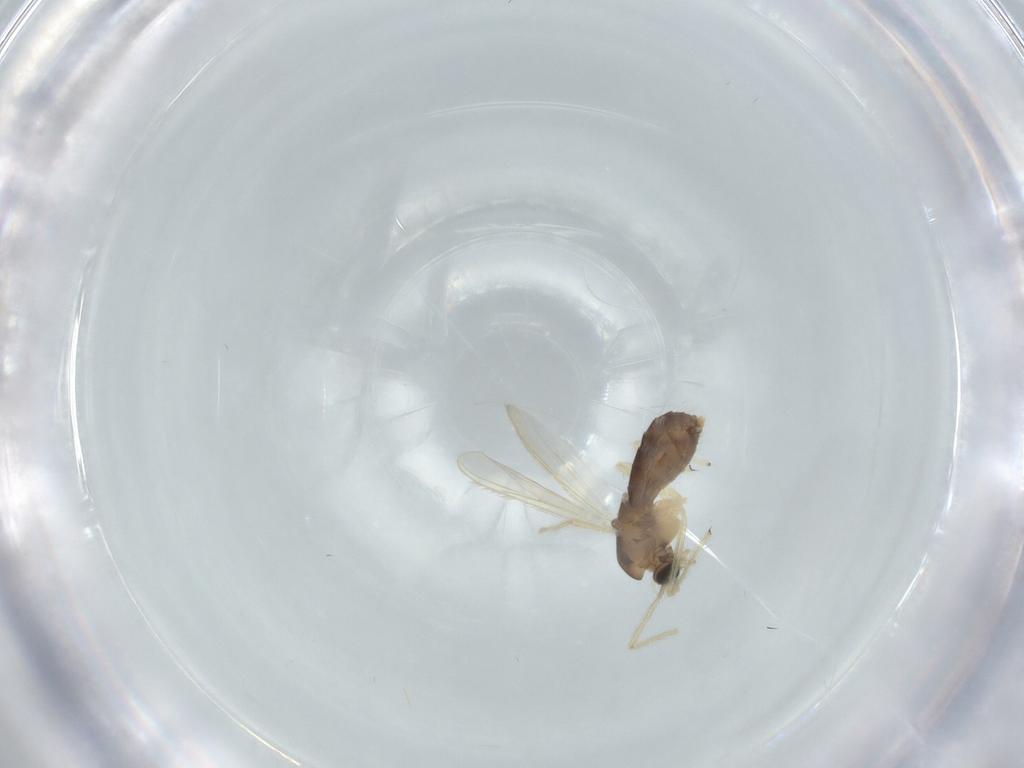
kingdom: Animalia
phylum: Arthropoda
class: Insecta
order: Diptera
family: Chironomidae
